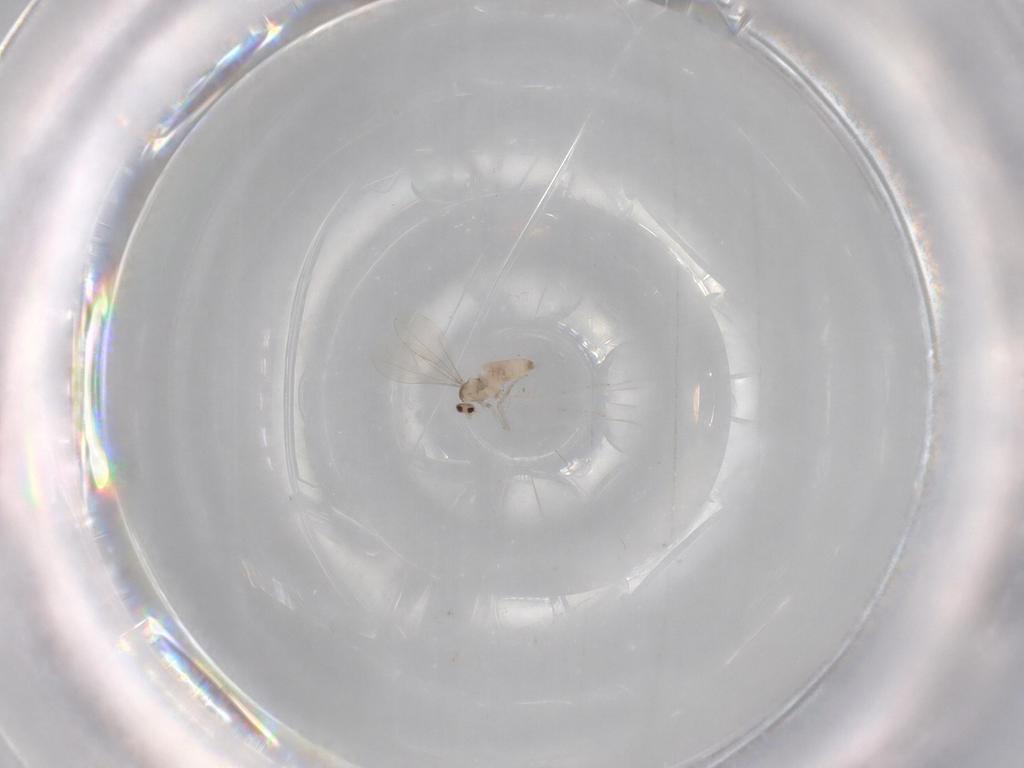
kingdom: Animalia
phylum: Arthropoda
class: Insecta
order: Diptera
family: Cecidomyiidae
